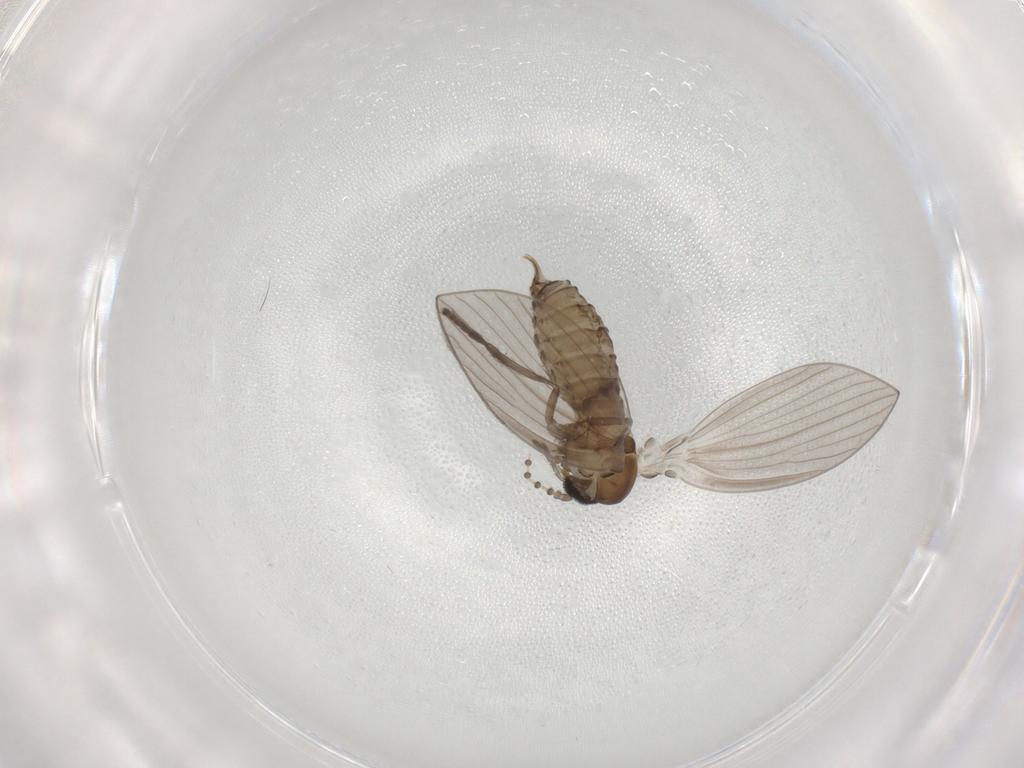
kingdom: Animalia
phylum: Arthropoda
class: Insecta
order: Diptera
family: Psychodidae
